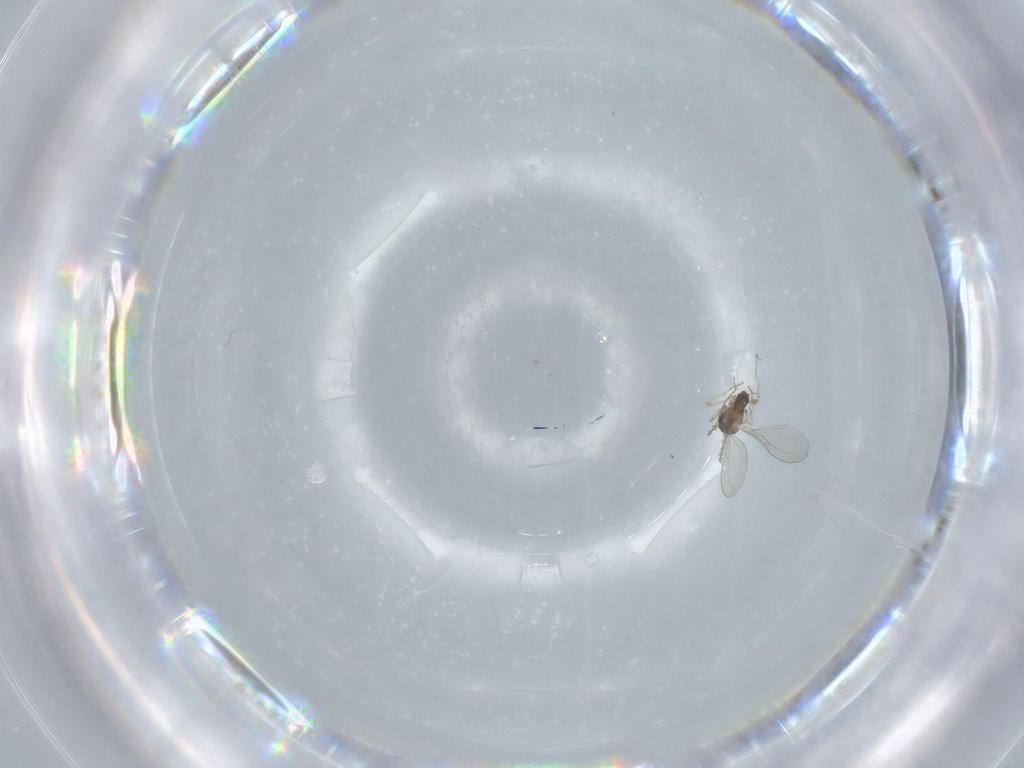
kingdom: Animalia
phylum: Arthropoda
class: Insecta
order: Diptera
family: Cecidomyiidae
